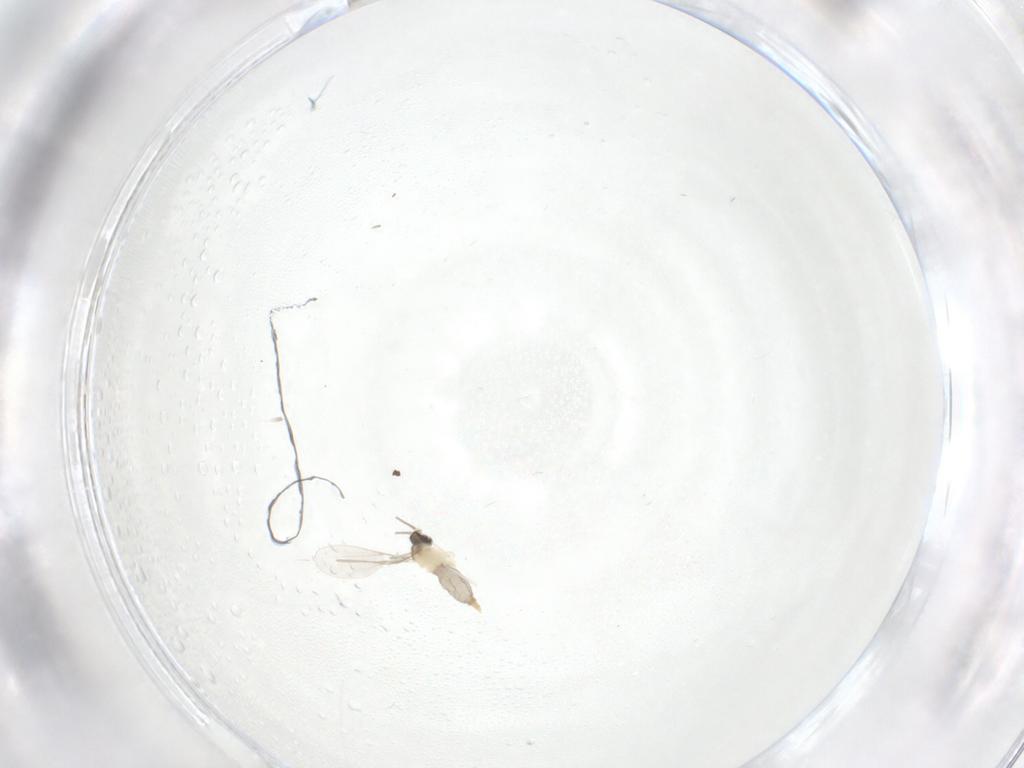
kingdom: Animalia
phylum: Arthropoda
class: Insecta
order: Diptera
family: Cecidomyiidae
